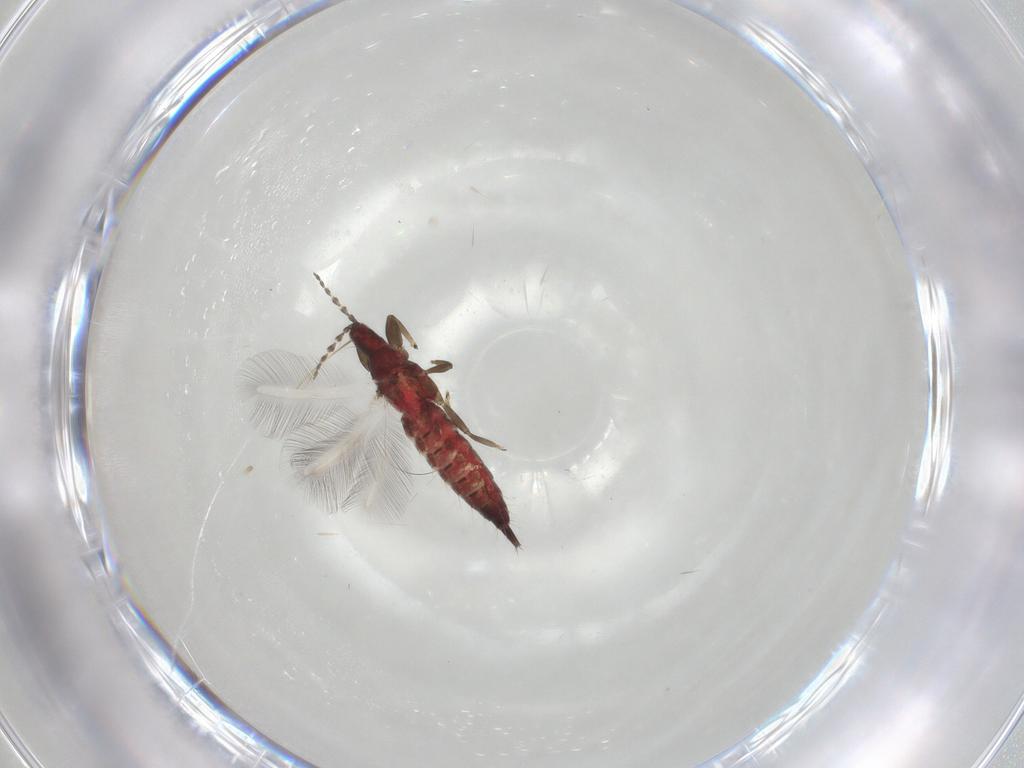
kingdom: Animalia
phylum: Arthropoda
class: Insecta
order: Thysanoptera
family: Phlaeothripidae
